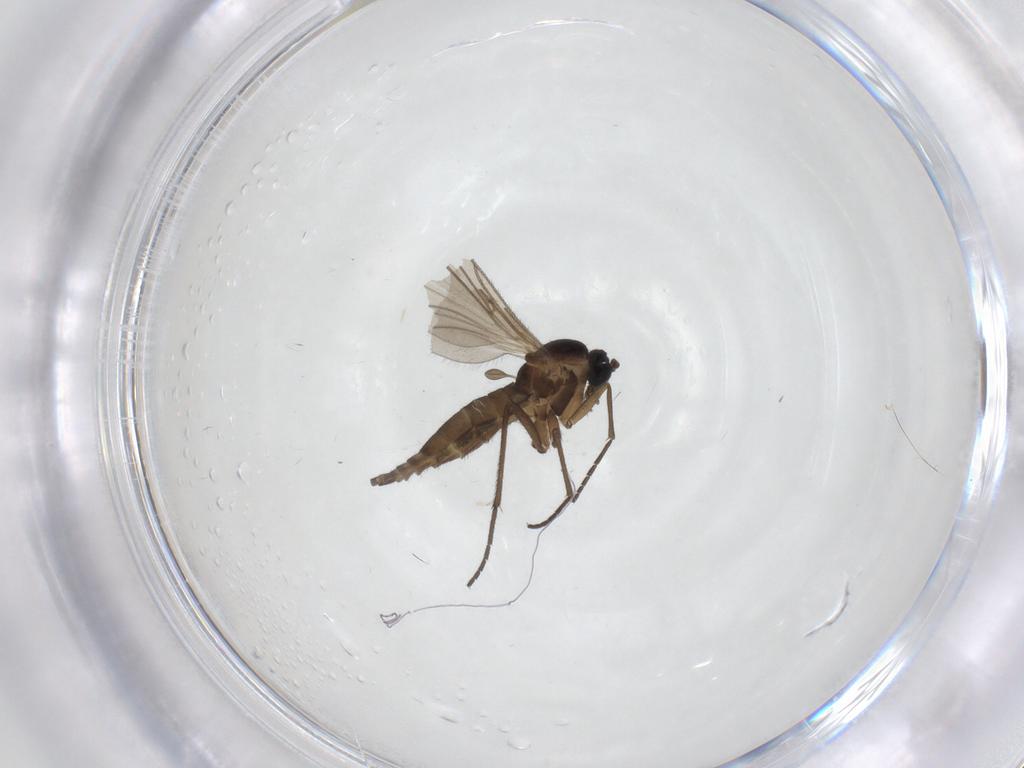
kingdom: Animalia
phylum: Arthropoda
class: Insecta
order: Diptera
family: Sciaridae
